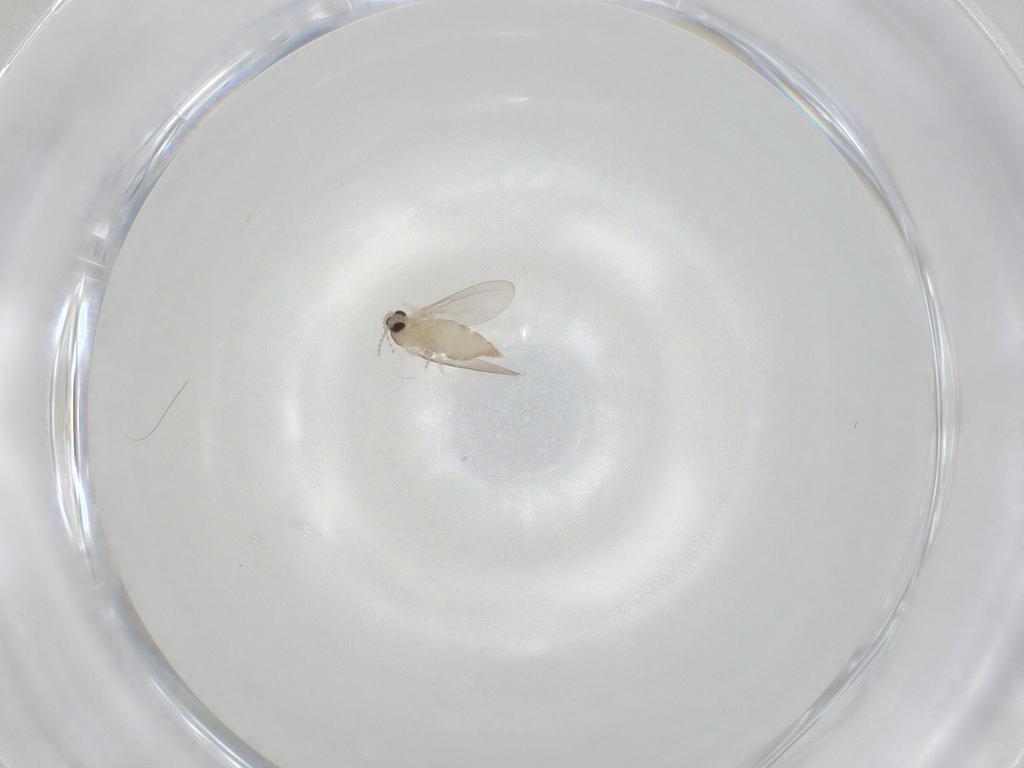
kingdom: Animalia
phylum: Arthropoda
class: Insecta
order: Diptera
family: Cecidomyiidae
